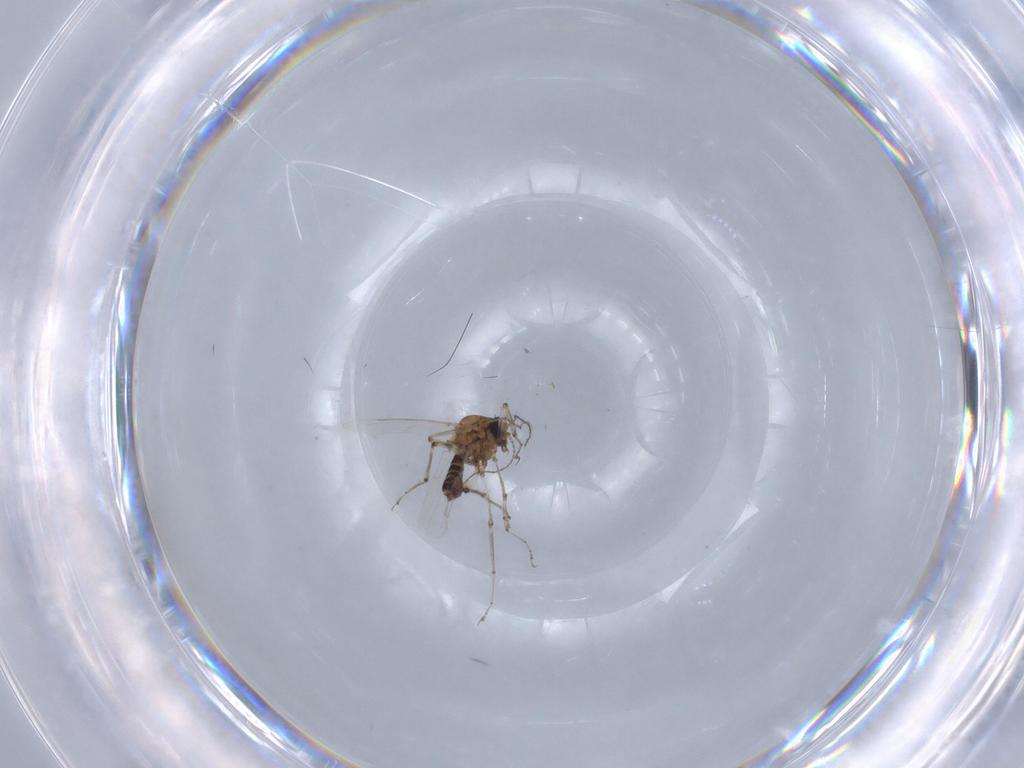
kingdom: Animalia
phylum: Arthropoda
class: Insecta
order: Diptera
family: Ceratopogonidae
